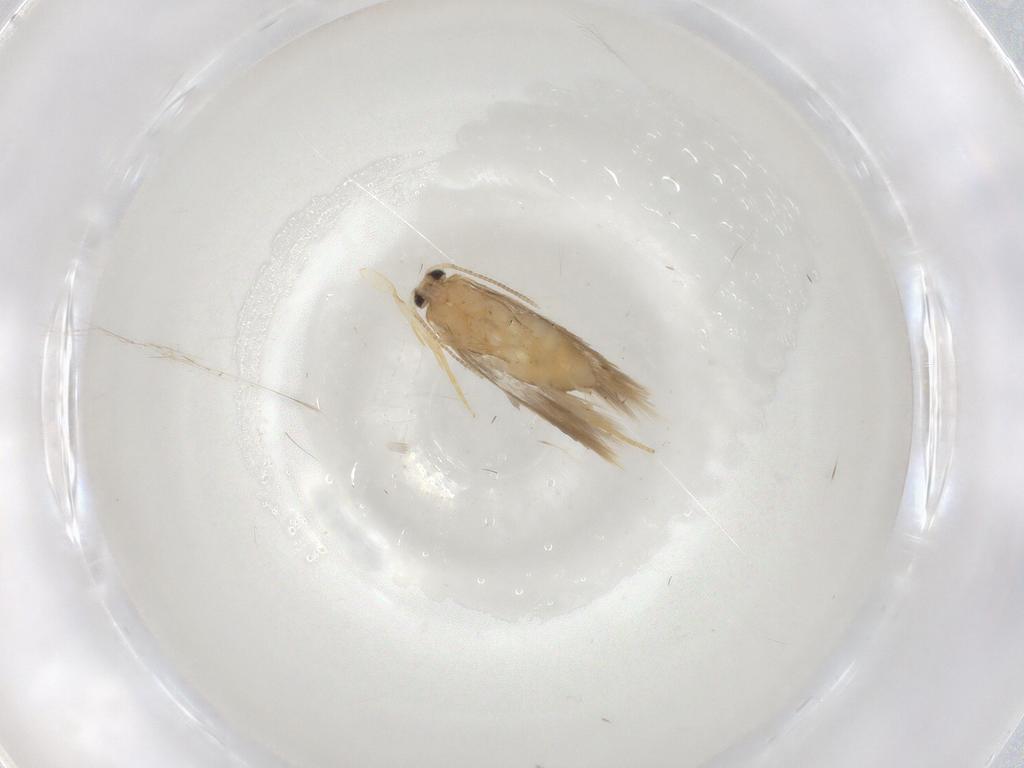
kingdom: Animalia
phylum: Arthropoda
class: Insecta
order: Lepidoptera
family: Nepticulidae
